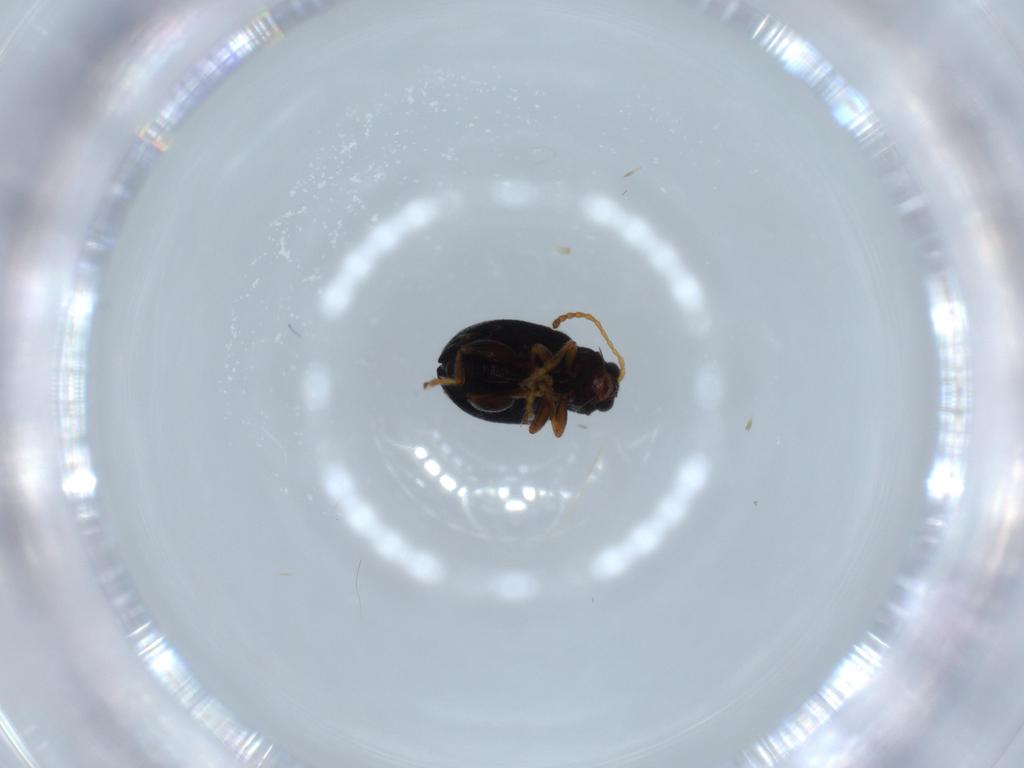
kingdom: Animalia
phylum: Arthropoda
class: Insecta
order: Coleoptera
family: Chrysomelidae
